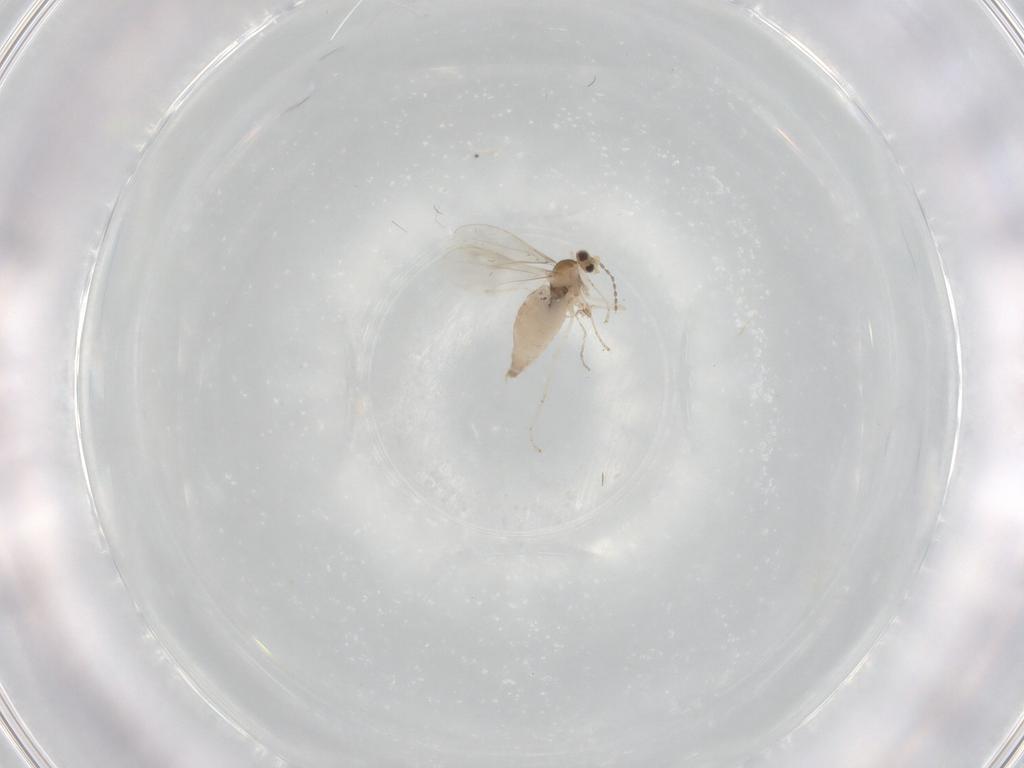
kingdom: Animalia
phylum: Arthropoda
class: Insecta
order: Diptera
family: Cecidomyiidae
